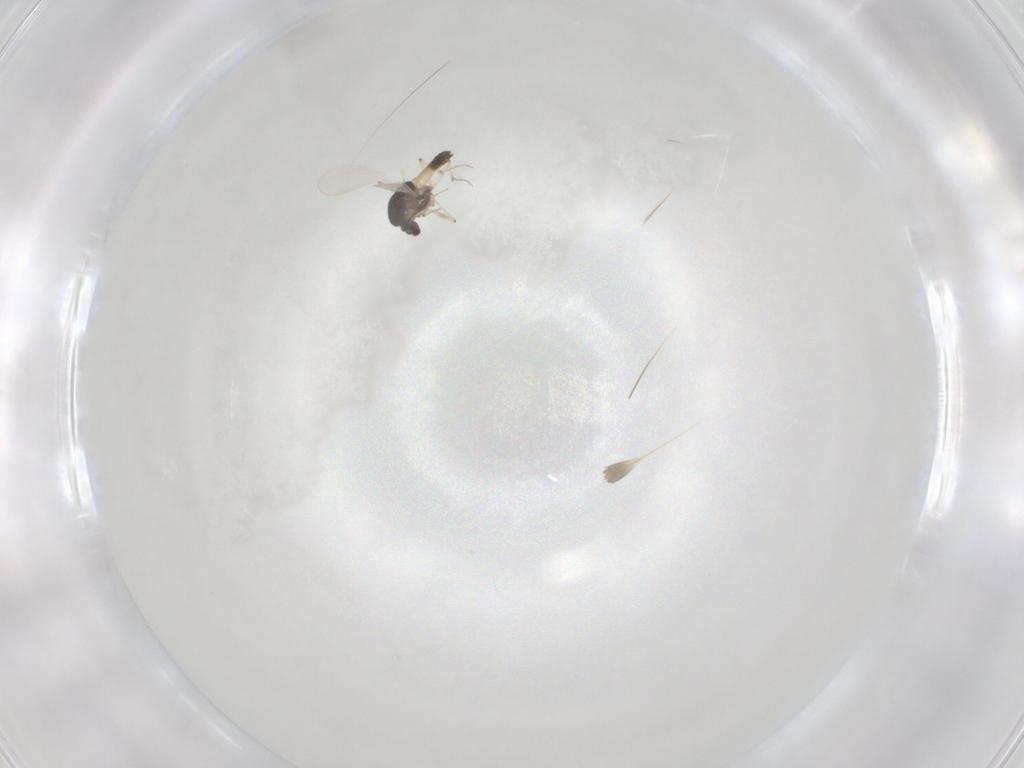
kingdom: Animalia
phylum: Arthropoda
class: Insecta
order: Diptera
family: Chironomidae
